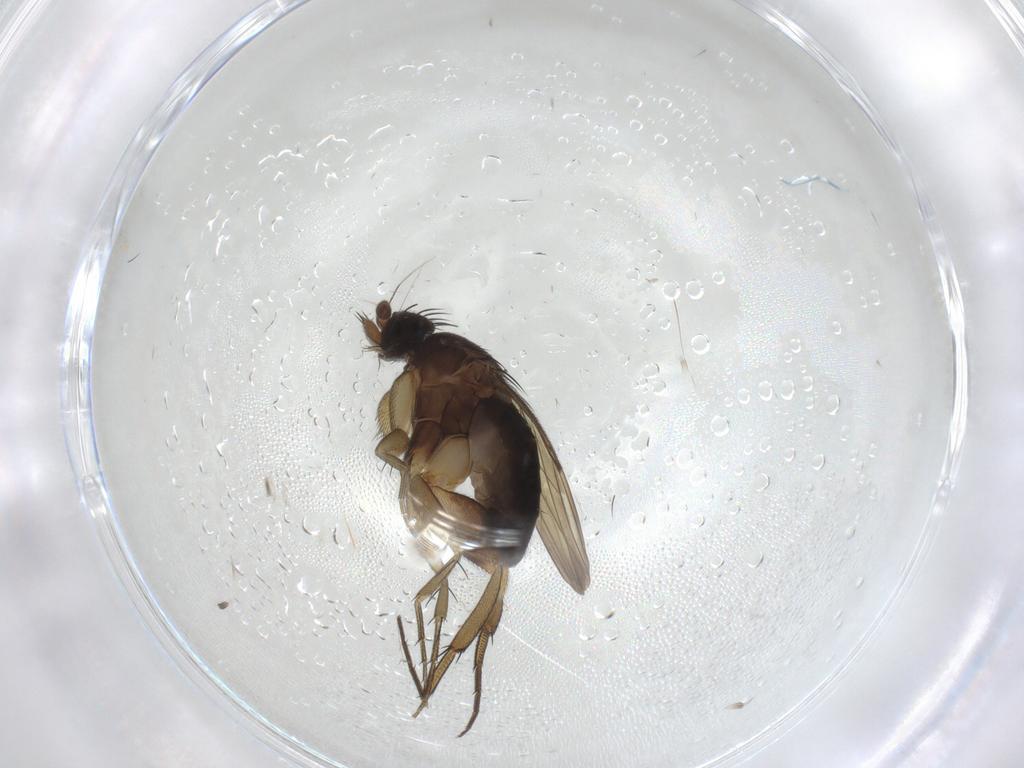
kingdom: Animalia
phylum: Arthropoda
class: Insecta
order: Diptera
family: Phoridae
